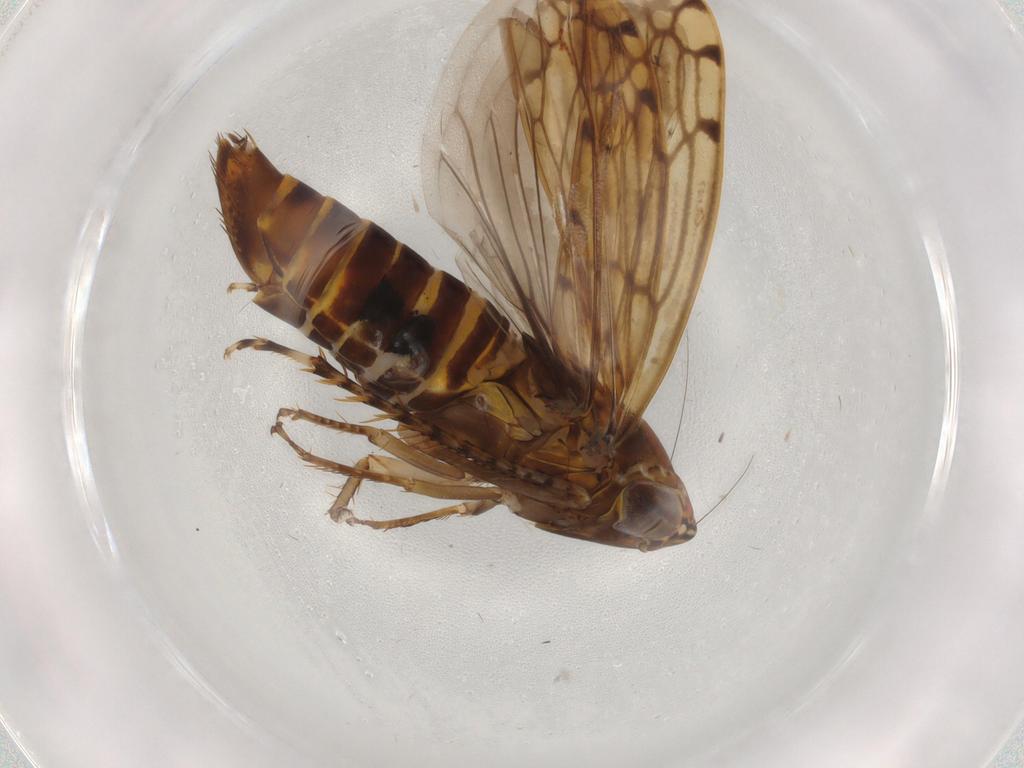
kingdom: Animalia
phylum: Arthropoda
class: Insecta
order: Hemiptera
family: Cicadellidae
